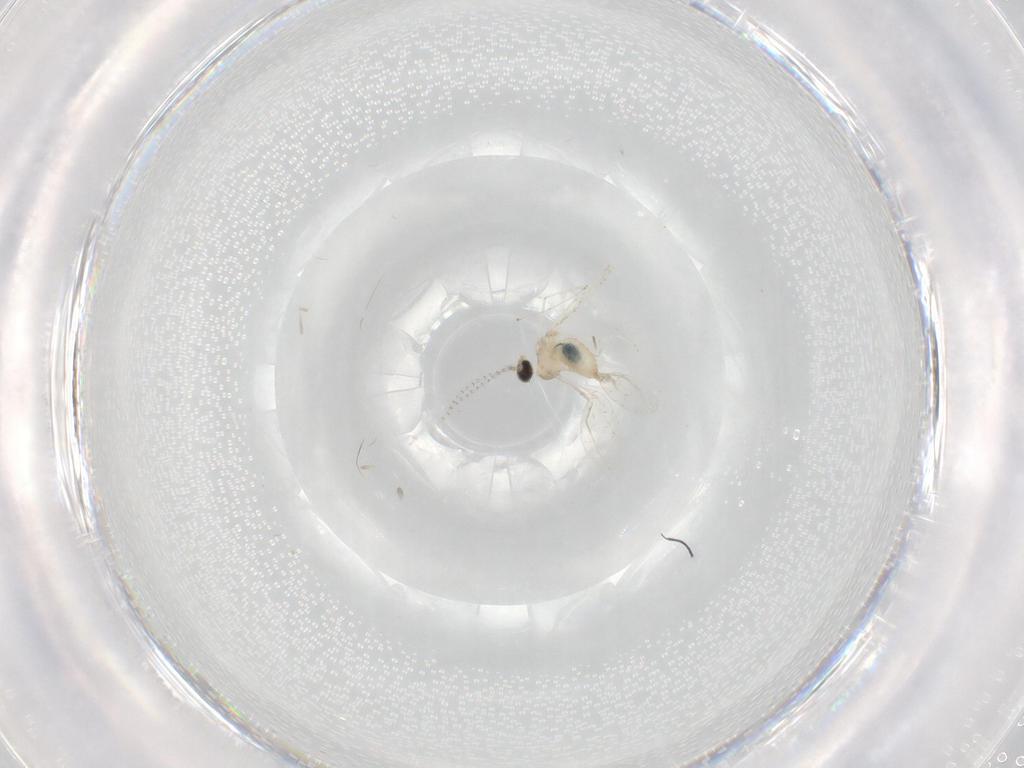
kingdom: Animalia
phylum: Arthropoda
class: Insecta
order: Diptera
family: Cecidomyiidae
